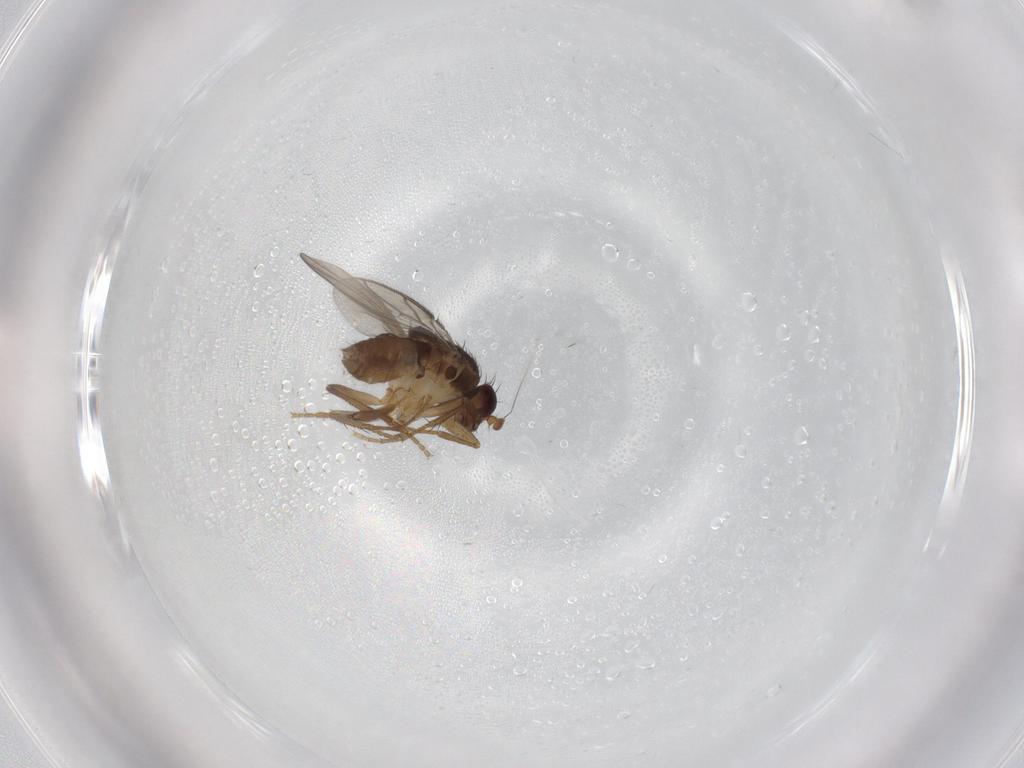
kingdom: Animalia
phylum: Arthropoda
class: Insecta
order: Diptera
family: Sphaeroceridae
